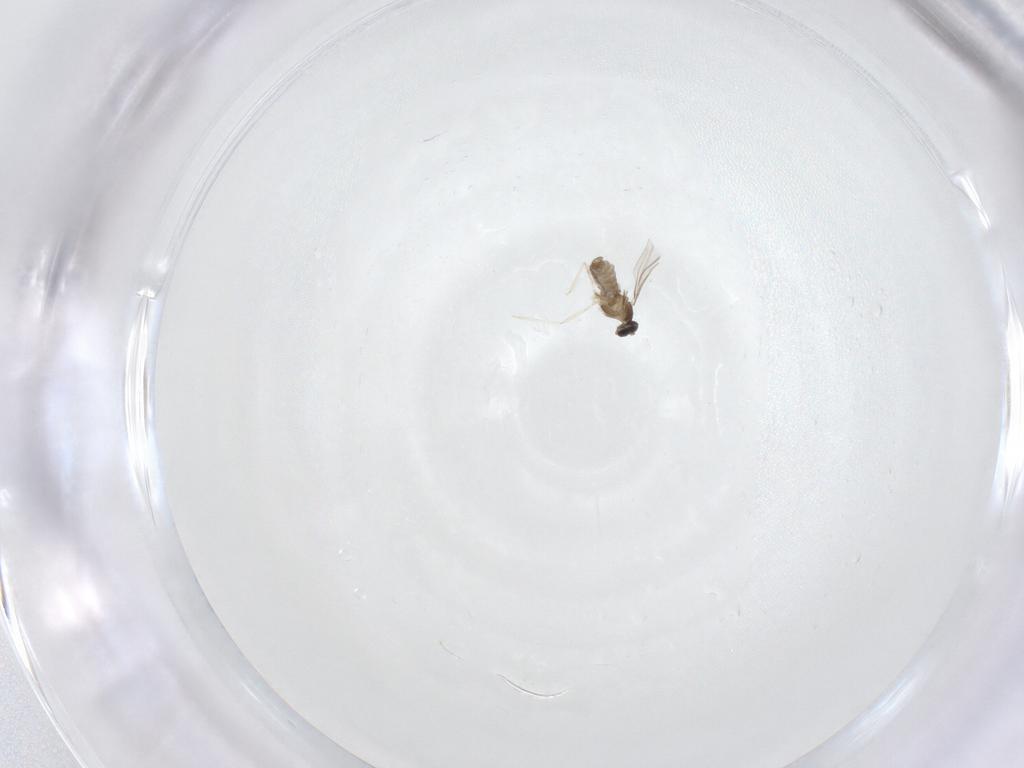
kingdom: Animalia
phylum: Arthropoda
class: Insecta
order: Diptera
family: Cecidomyiidae
